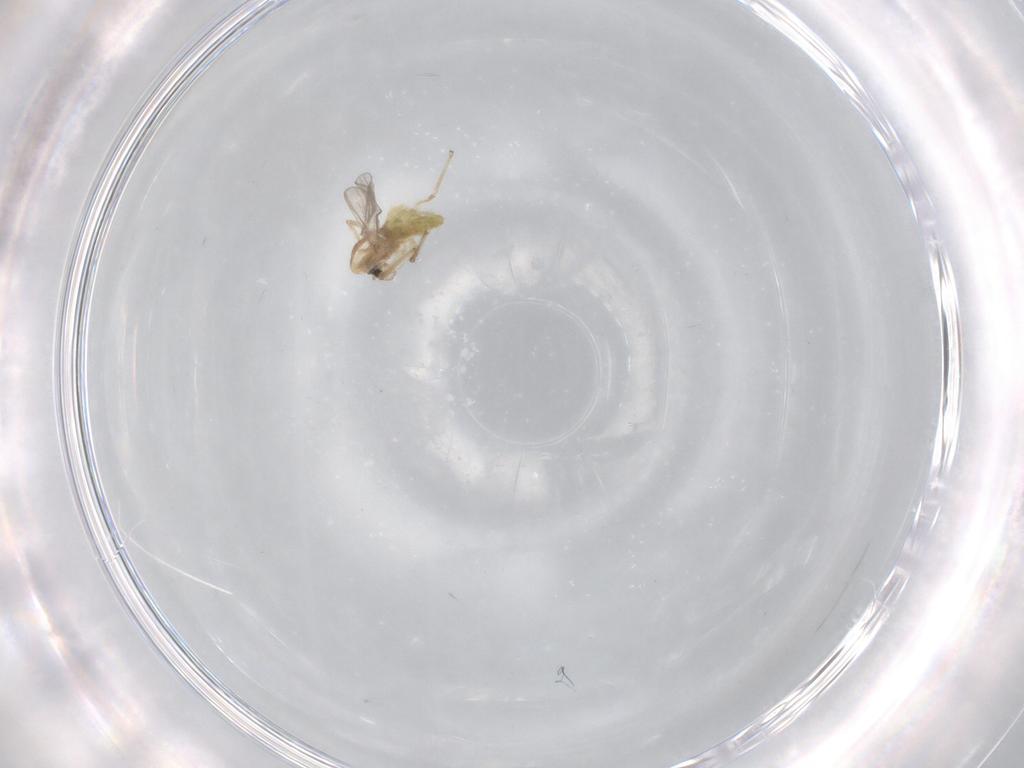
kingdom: Animalia
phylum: Arthropoda
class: Insecta
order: Diptera
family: Chironomidae
